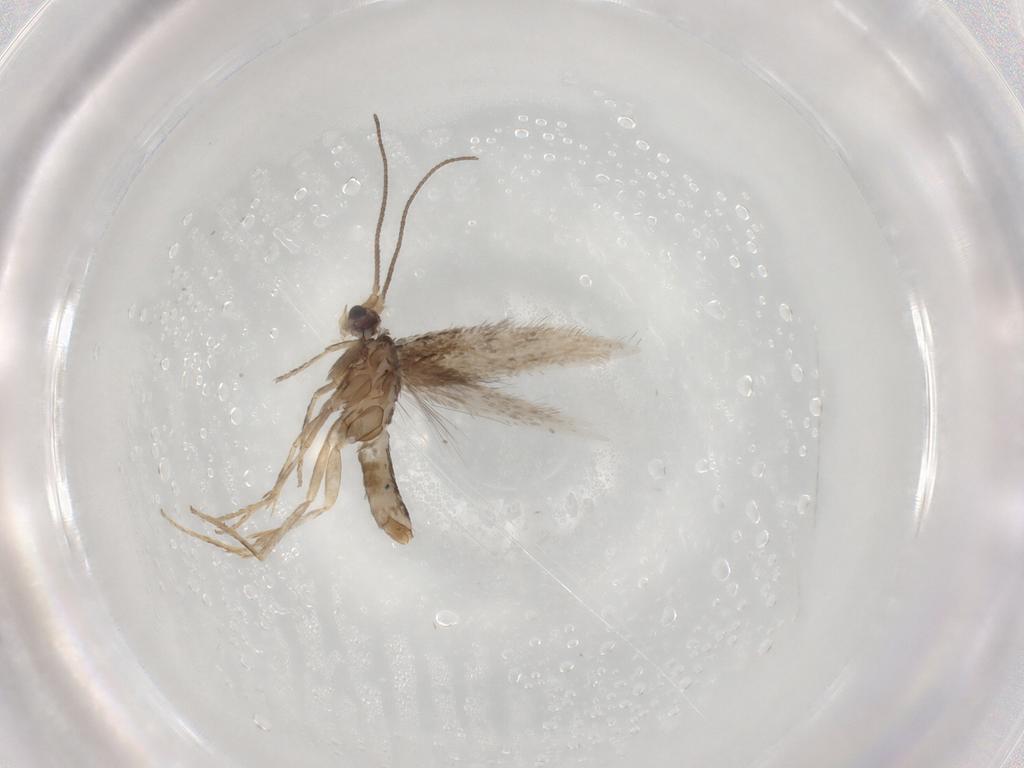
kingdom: Animalia
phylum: Arthropoda
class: Insecta
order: Lepidoptera
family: Nepticulidae
